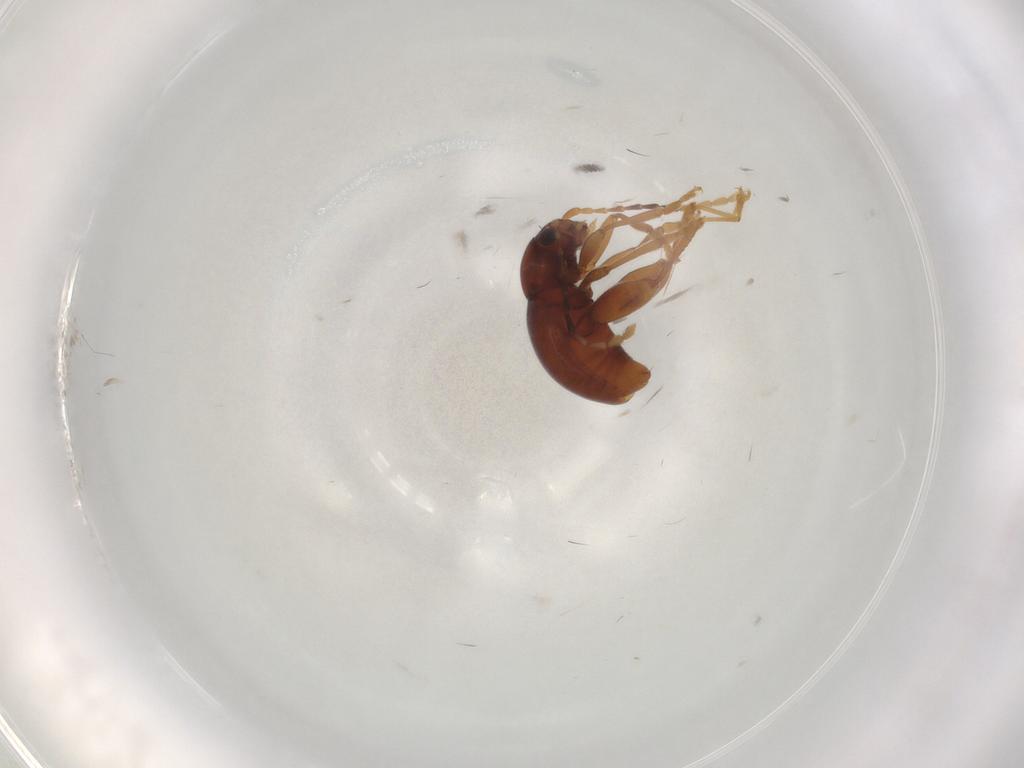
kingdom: Animalia
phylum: Arthropoda
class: Insecta
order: Coleoptera
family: Chrysomelidae
